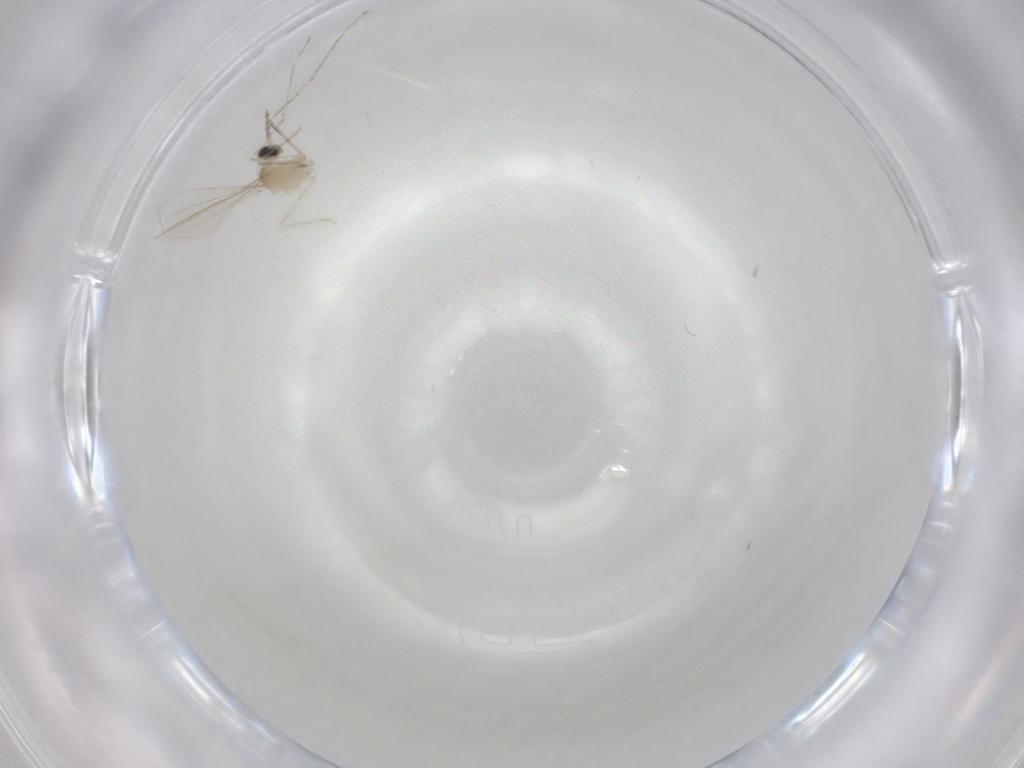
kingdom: Animalia
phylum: Arthropoda
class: Insecta
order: Diptera
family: Cecidomyiidae
